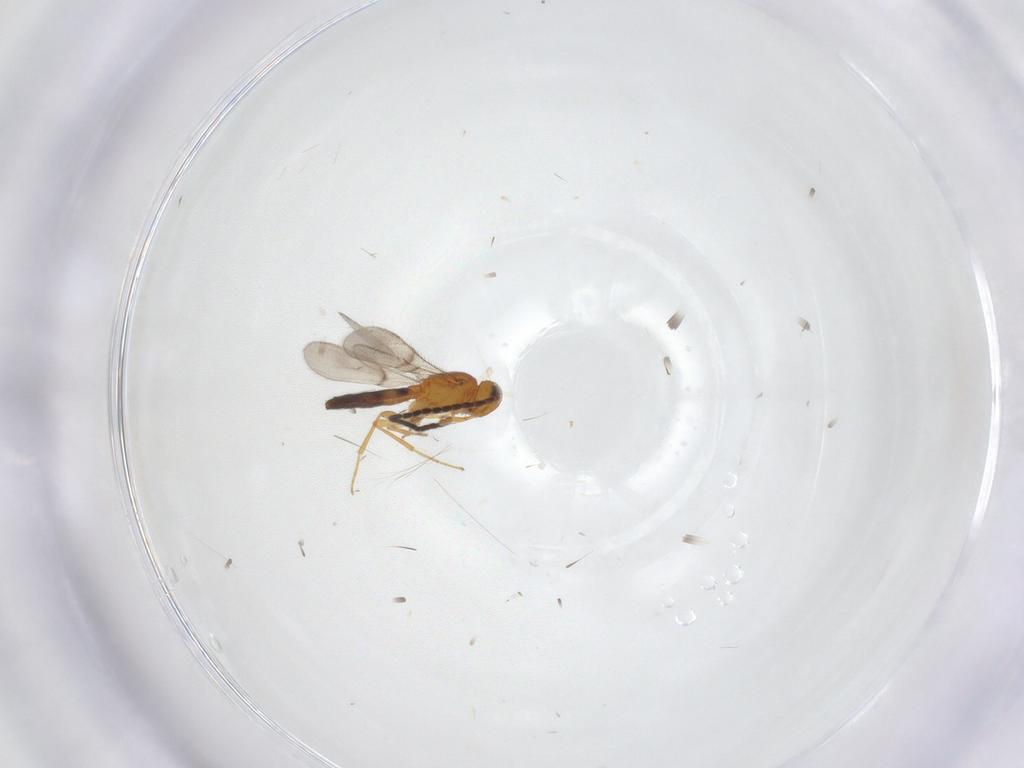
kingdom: Animalia
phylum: Arthropoda
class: Insecta
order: Hymenoptera
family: Scelionidae
